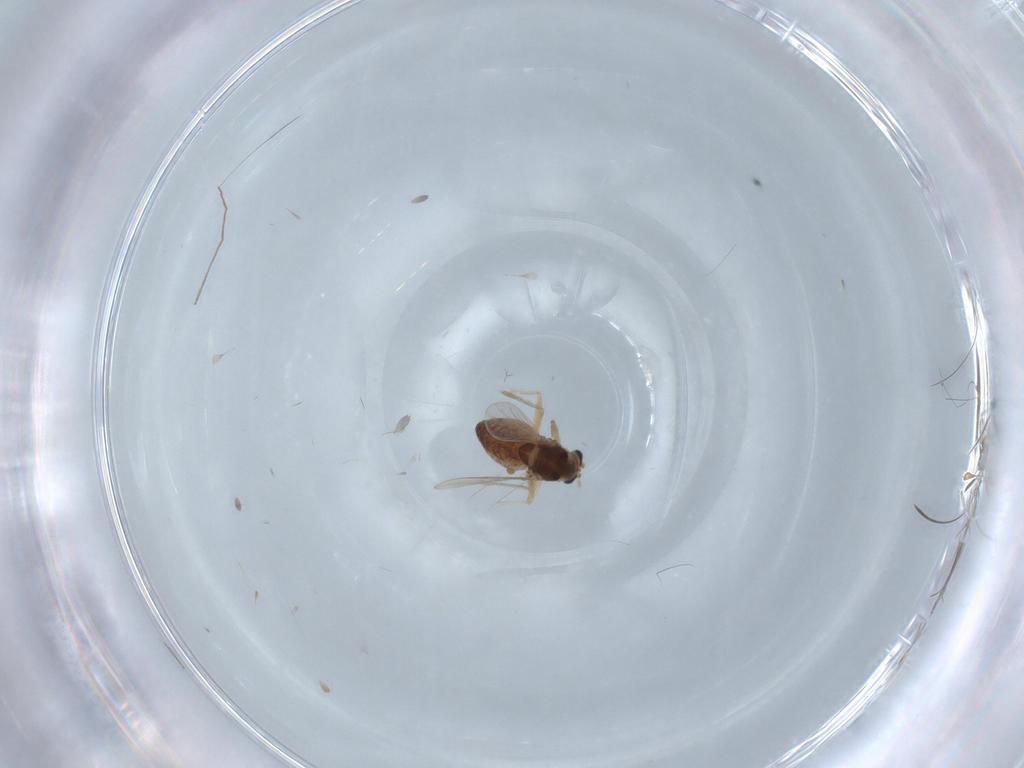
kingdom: Animalia
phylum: Arthropoda
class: Insecta
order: Diptera
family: Chironomidae
